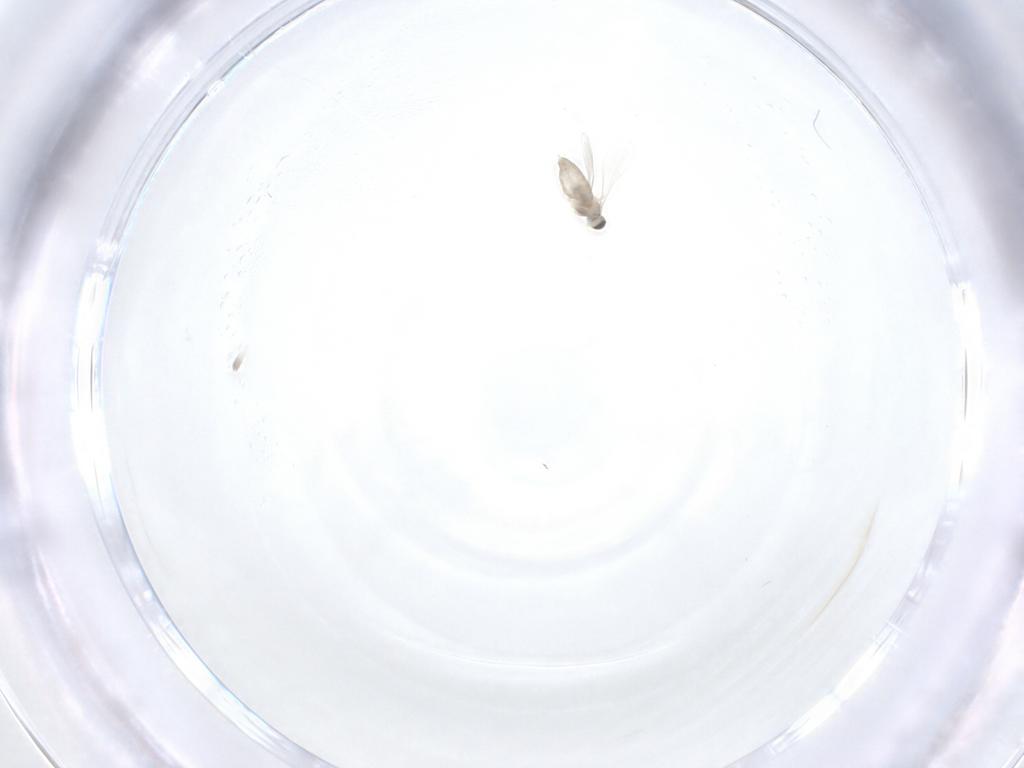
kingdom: Animalia
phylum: Arthropoda
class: Insecta
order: Diptera
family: Cecidomyiidae
